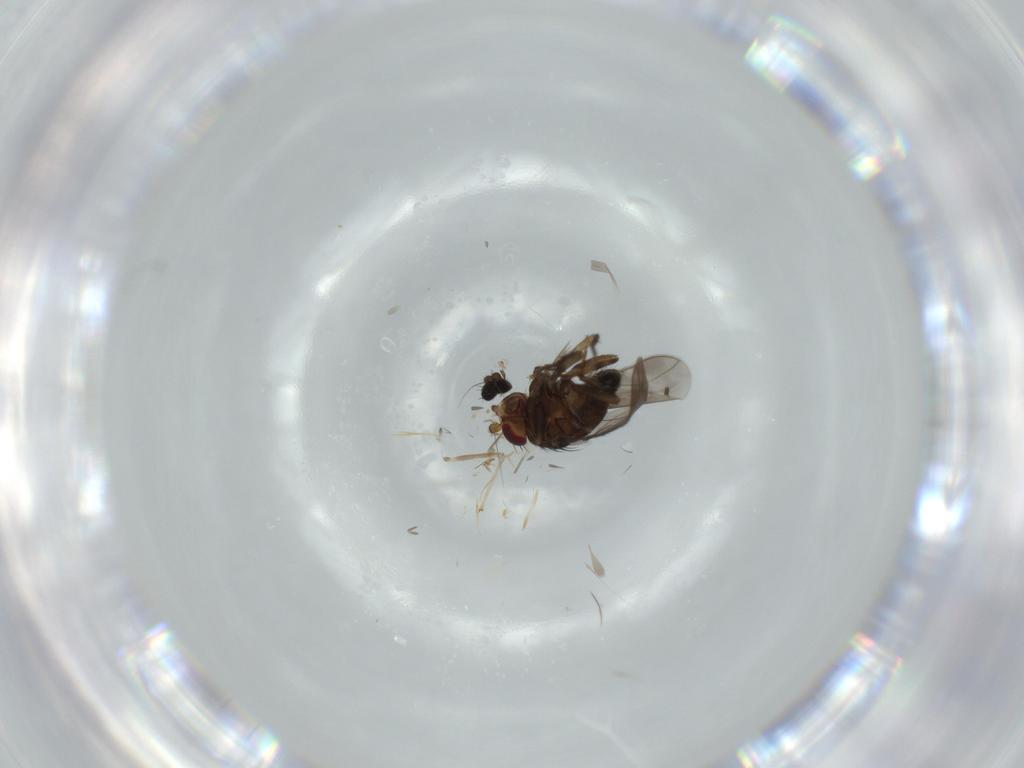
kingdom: Animalia
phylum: Arthropoda
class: Insecta
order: Diptera
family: Phoridae
